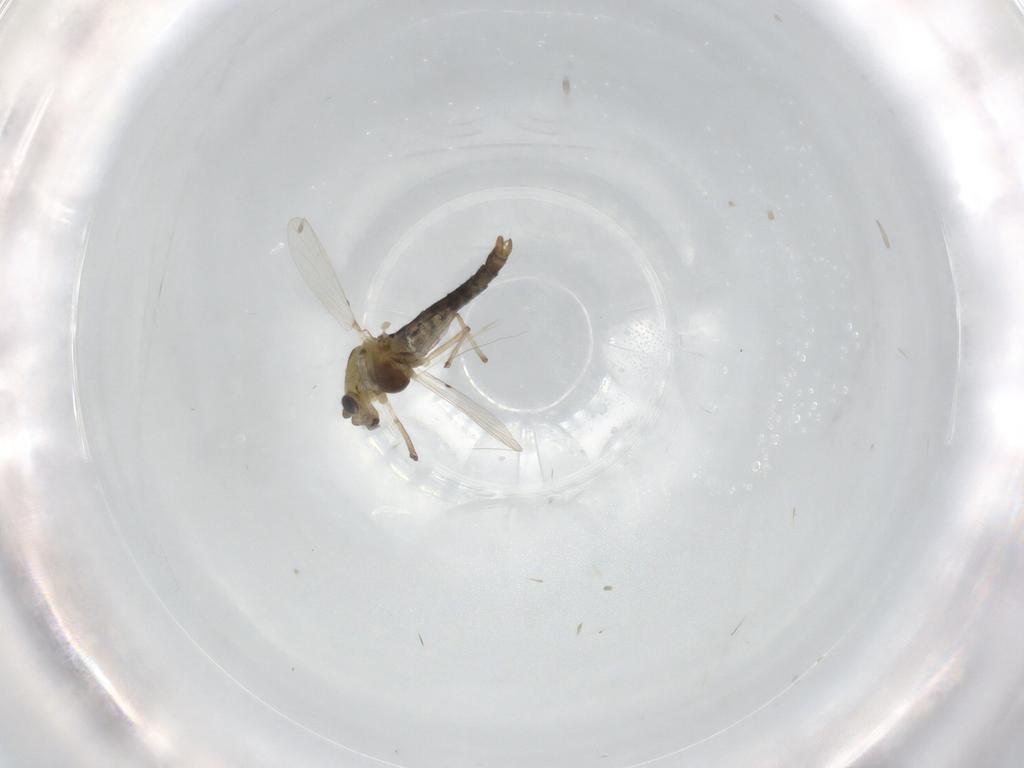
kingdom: Animalia
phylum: Arthropoda
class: Insecta
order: Diptera
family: Chironomidae
